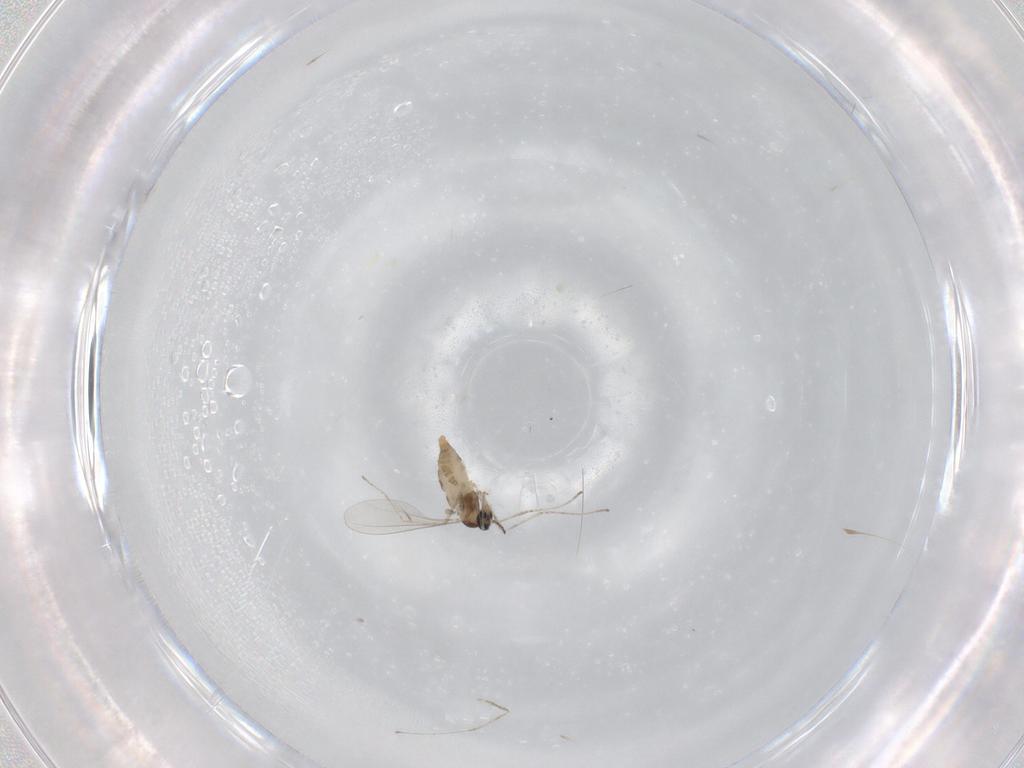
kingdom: Animalia
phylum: Arthropoda
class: Insecta
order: Diptera
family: Cecidomyiidae
